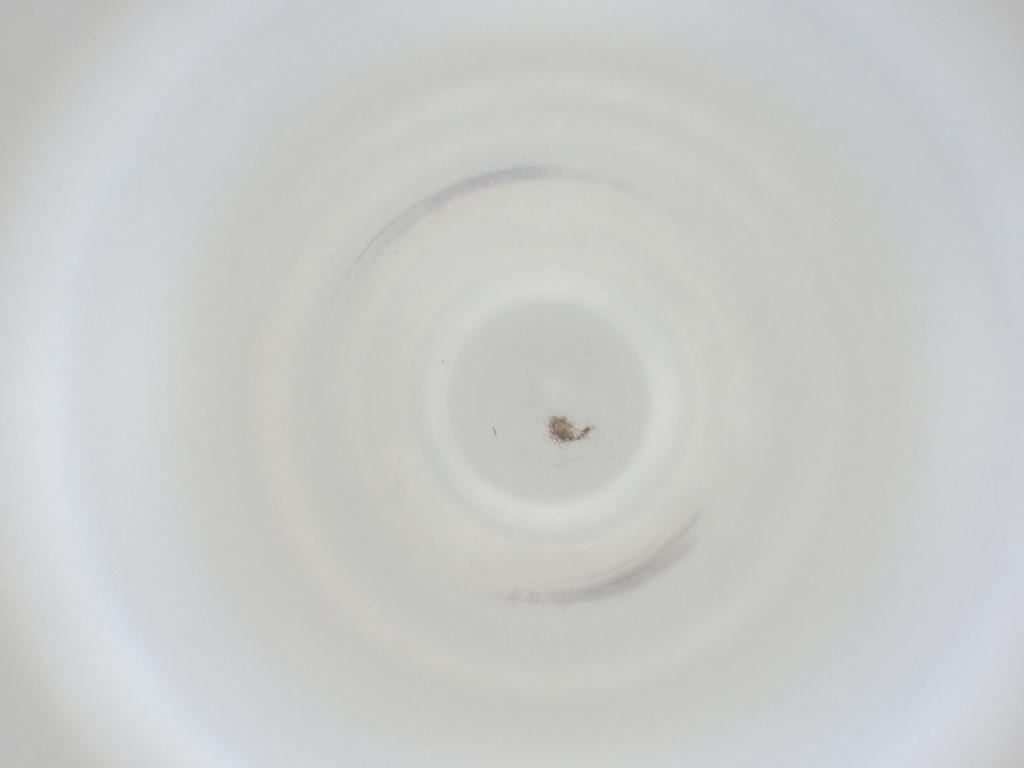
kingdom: Animalia
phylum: Arthropoda
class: Insecta
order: Diptera
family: Cecidomyiidae
